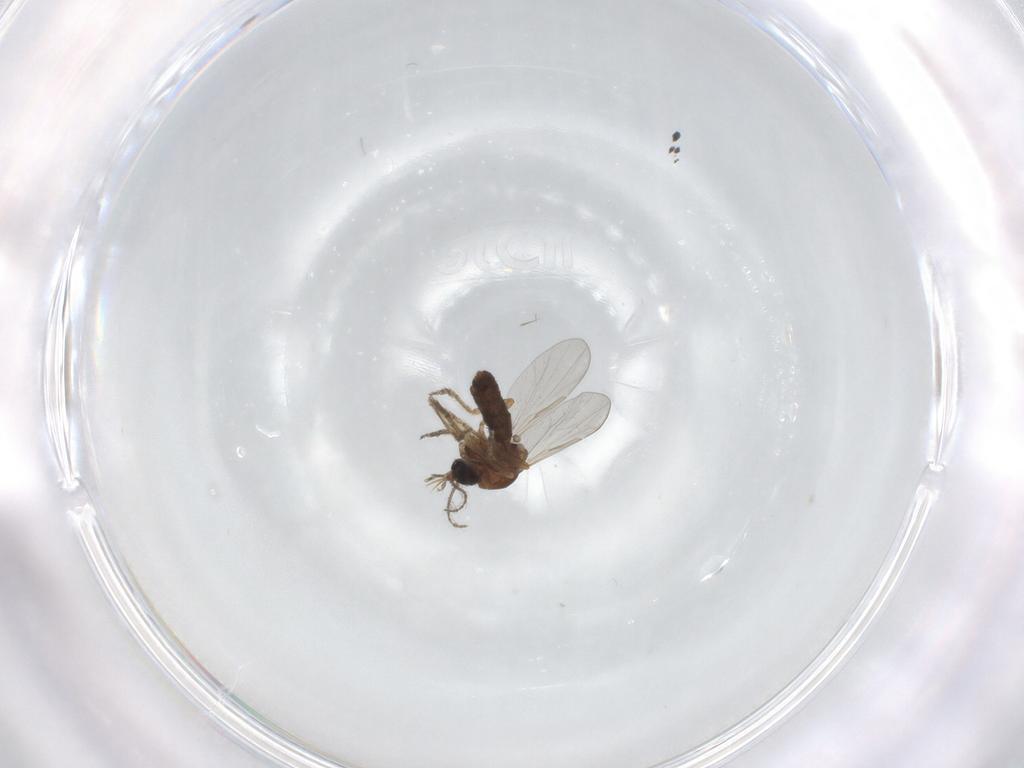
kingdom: Animalia
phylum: Arthropoda
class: Insecta
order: Diptera
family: Ceratopogonidae
